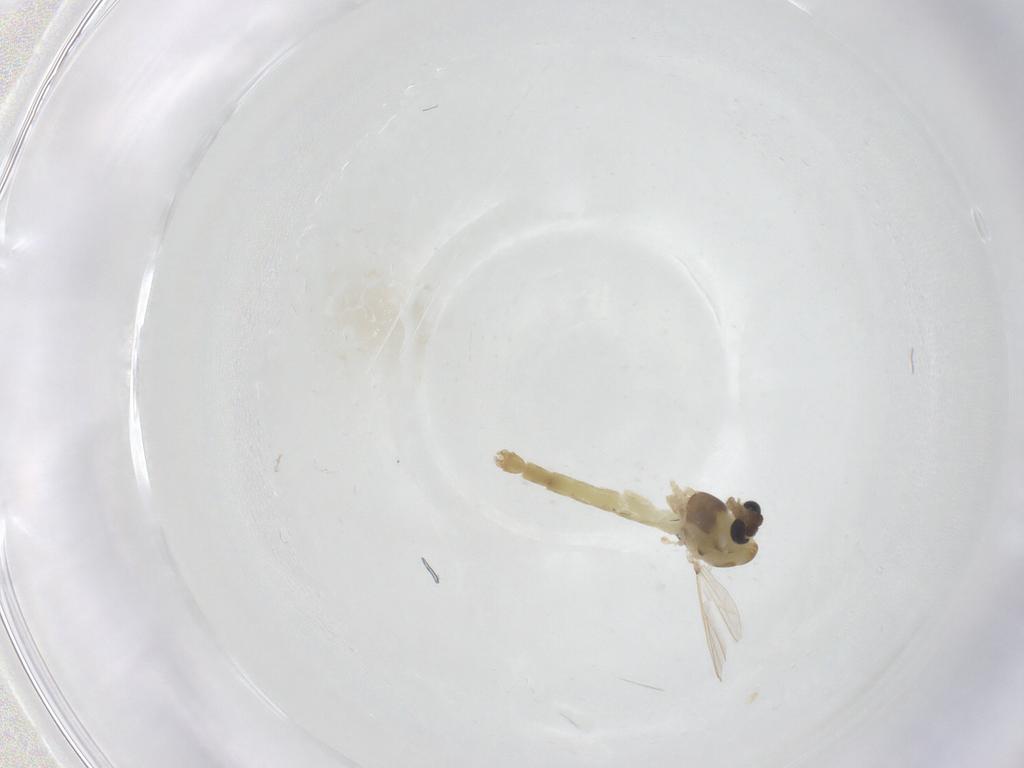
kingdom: Animalia
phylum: Arthropoda
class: Insecta
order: Diptera
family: Chironomidae
